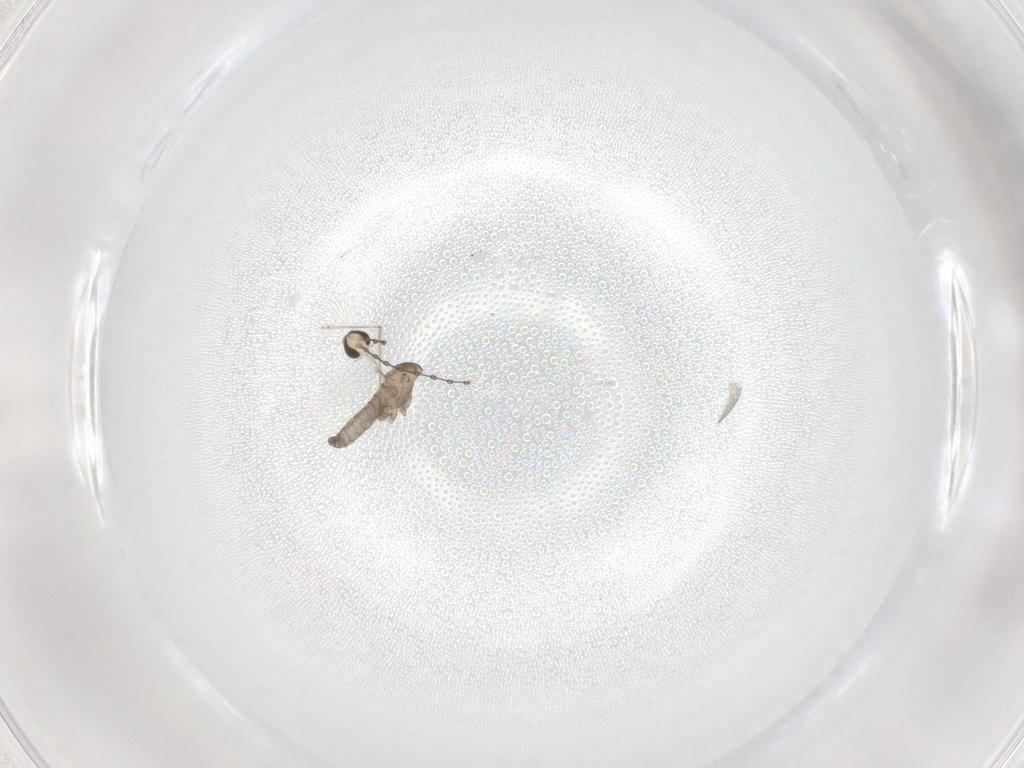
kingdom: Animalia
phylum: Arthropoda
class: Insecta
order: Diptera
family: Cecidomyiidae
